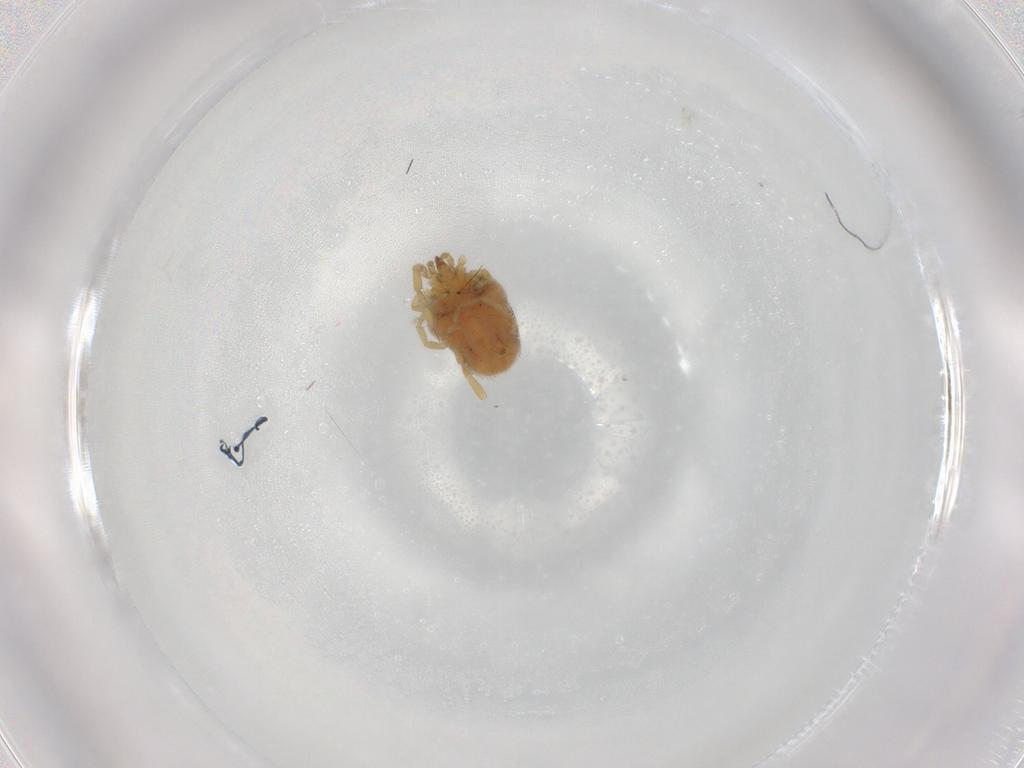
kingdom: Animalia
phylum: Arthropoda
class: Arachnida
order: Trombidiformes
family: Erythraeidae
